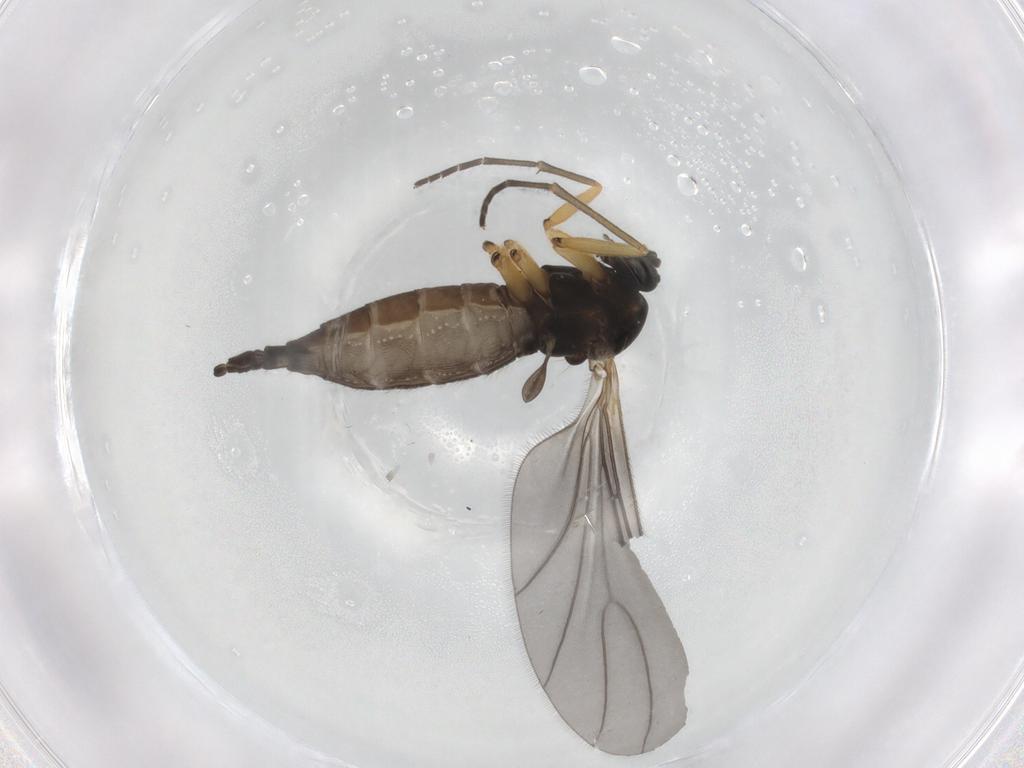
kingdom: Animalia
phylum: Arthropoda
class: Insecta
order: Diptera
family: Sciaridae
